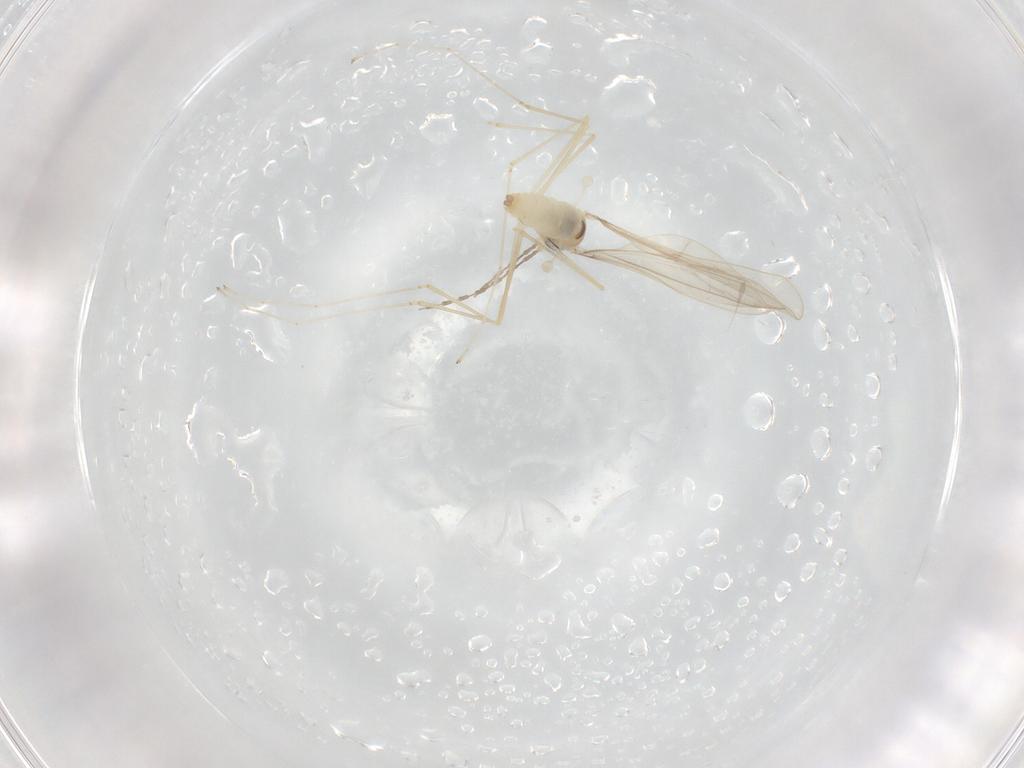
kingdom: Animalia
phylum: Arthropoda
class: Insecta
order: Diptera
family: Cecidomyiidae
